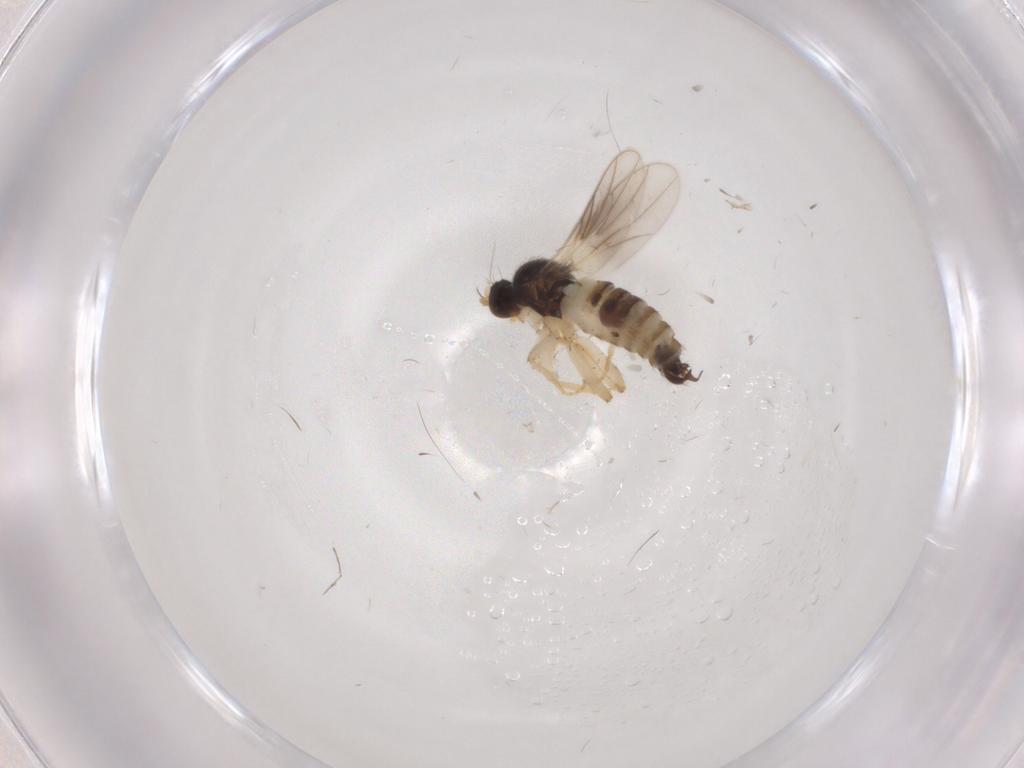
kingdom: Animalia
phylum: Arthropoda
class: Insecta
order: Diptera
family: Hybotidae
